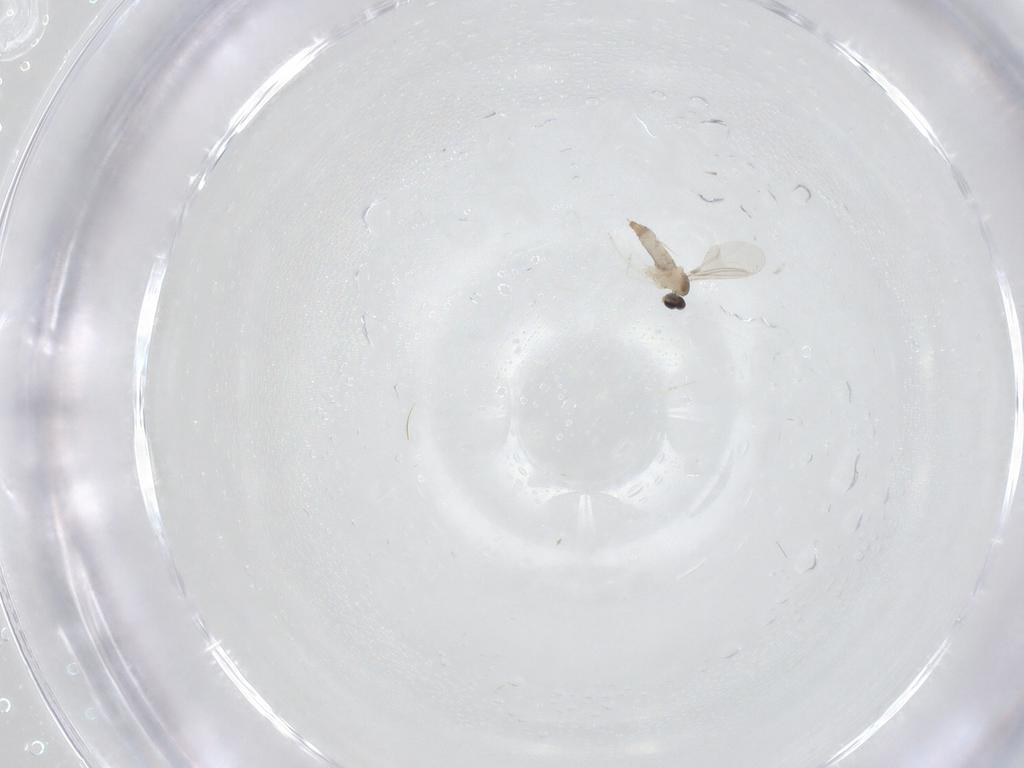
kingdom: Animalia
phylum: Arthropoda
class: Insecta
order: Diptera
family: Cecidomyiidae
